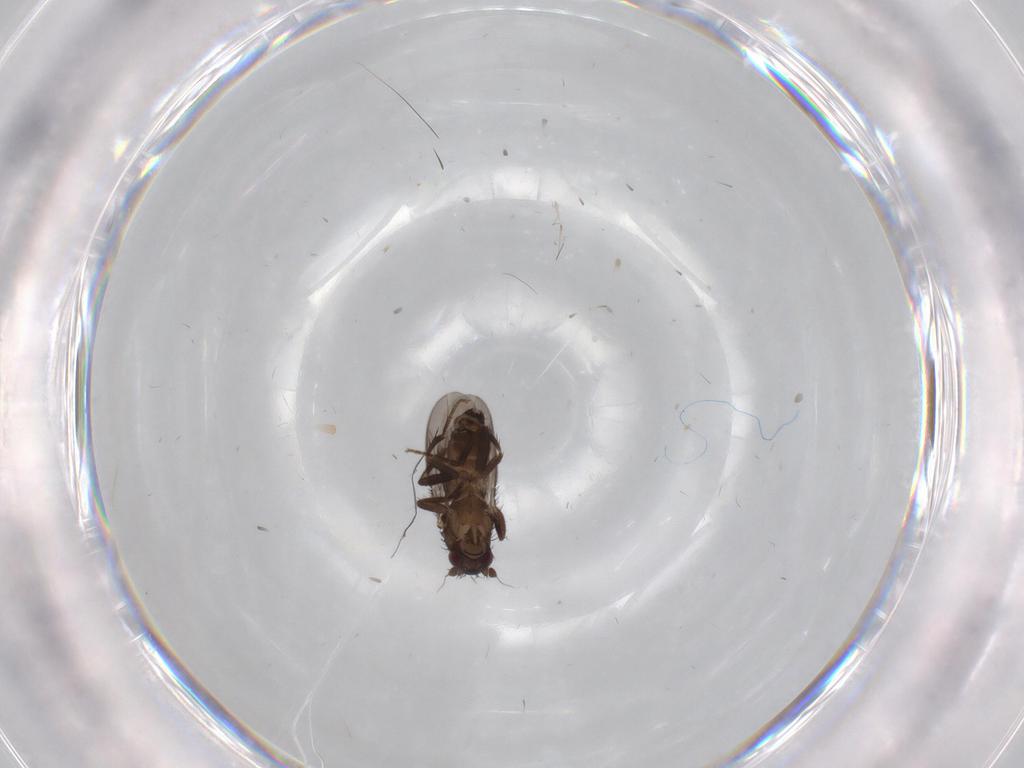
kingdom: Animalia
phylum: Arthropoda
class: Insecta
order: Diptera
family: Sphaeroceridae
